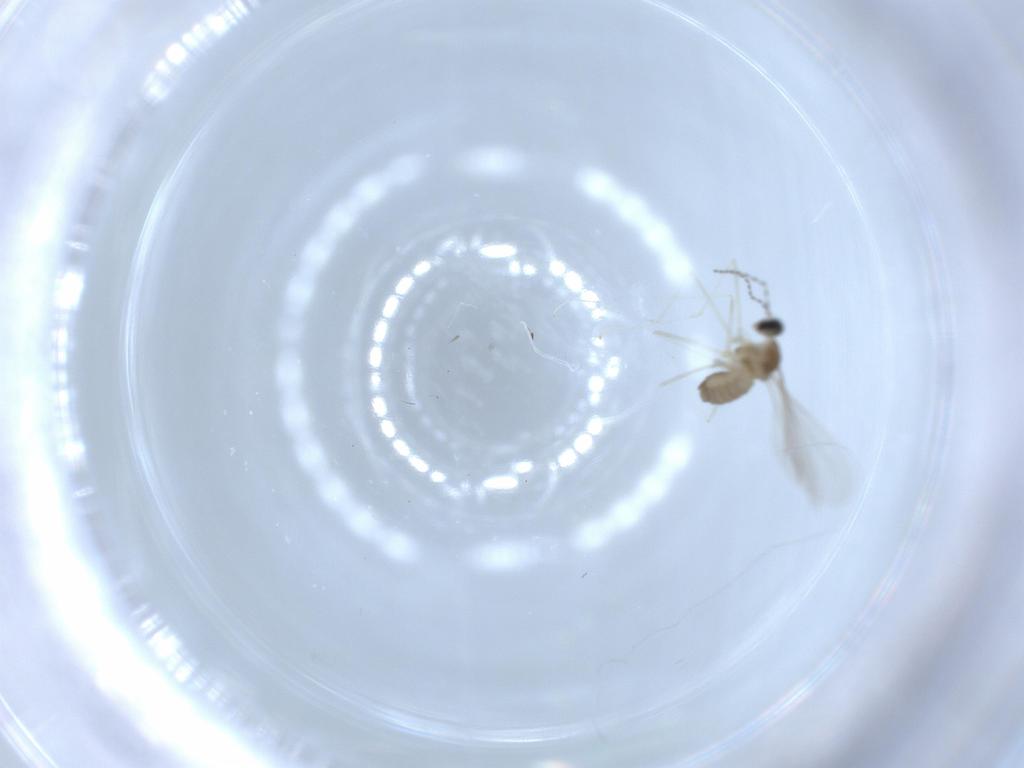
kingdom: Animalia
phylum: Arthropoda
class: Insecta
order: Diptera
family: Cecidomyiidae
